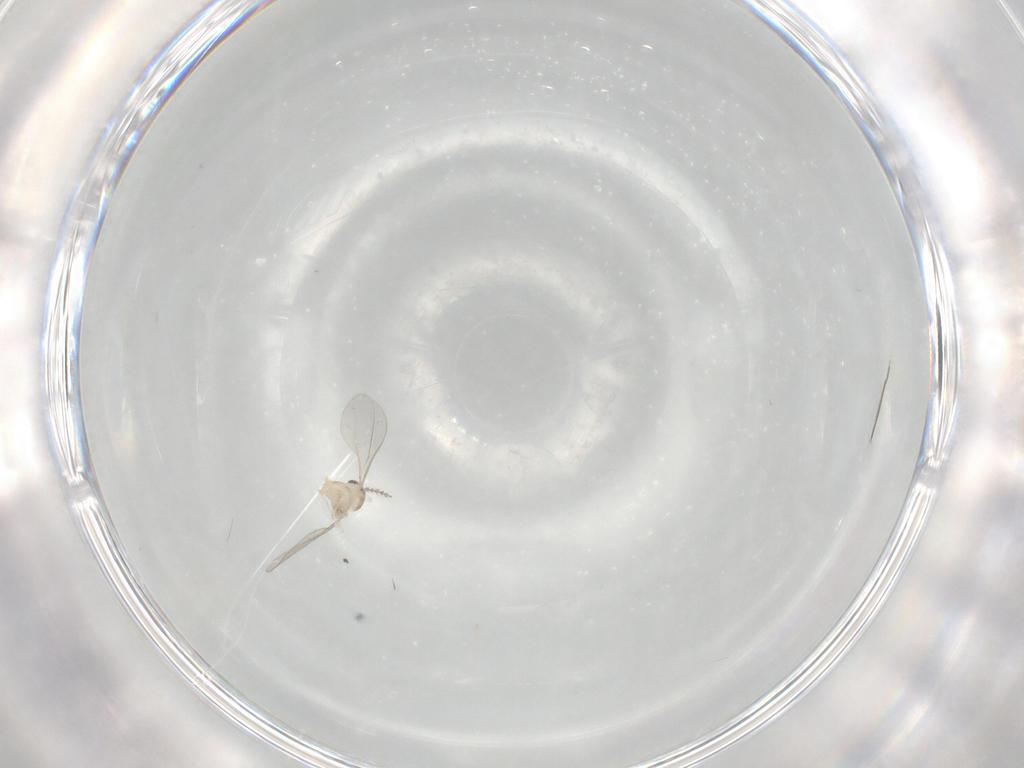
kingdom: Animalia
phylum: Arthropoda
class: Insecta
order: Diptera
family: Cecidomyiidae
